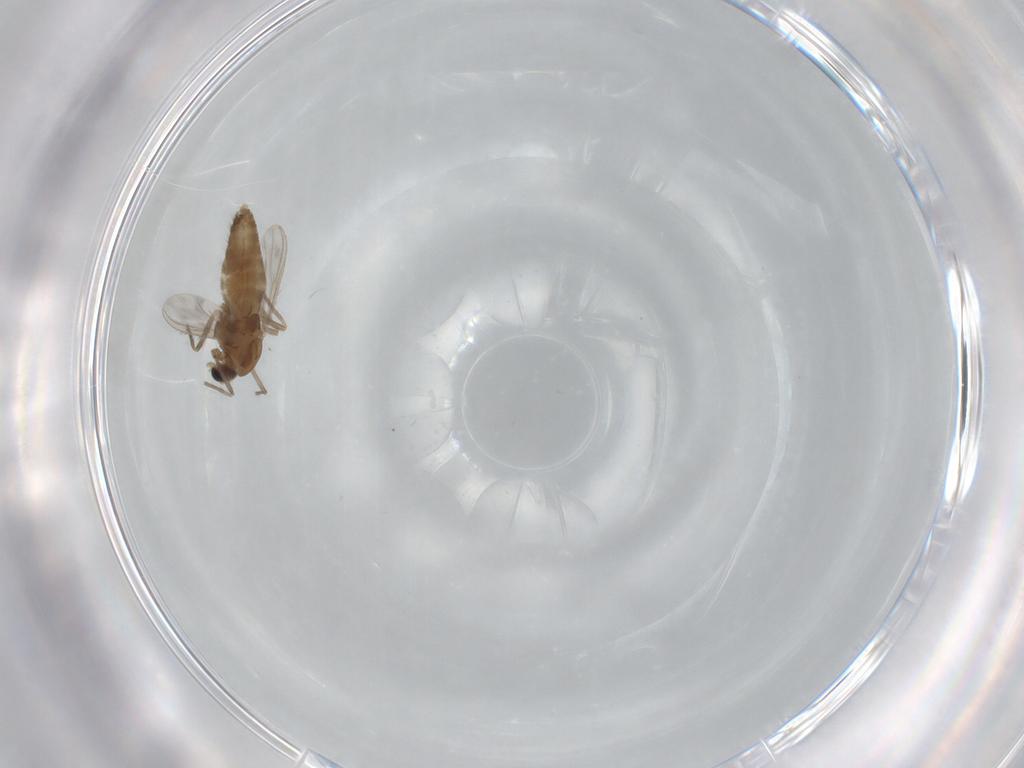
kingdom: Animalia
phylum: Arthropoda
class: Insecta
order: Diptera
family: Chironomidae
